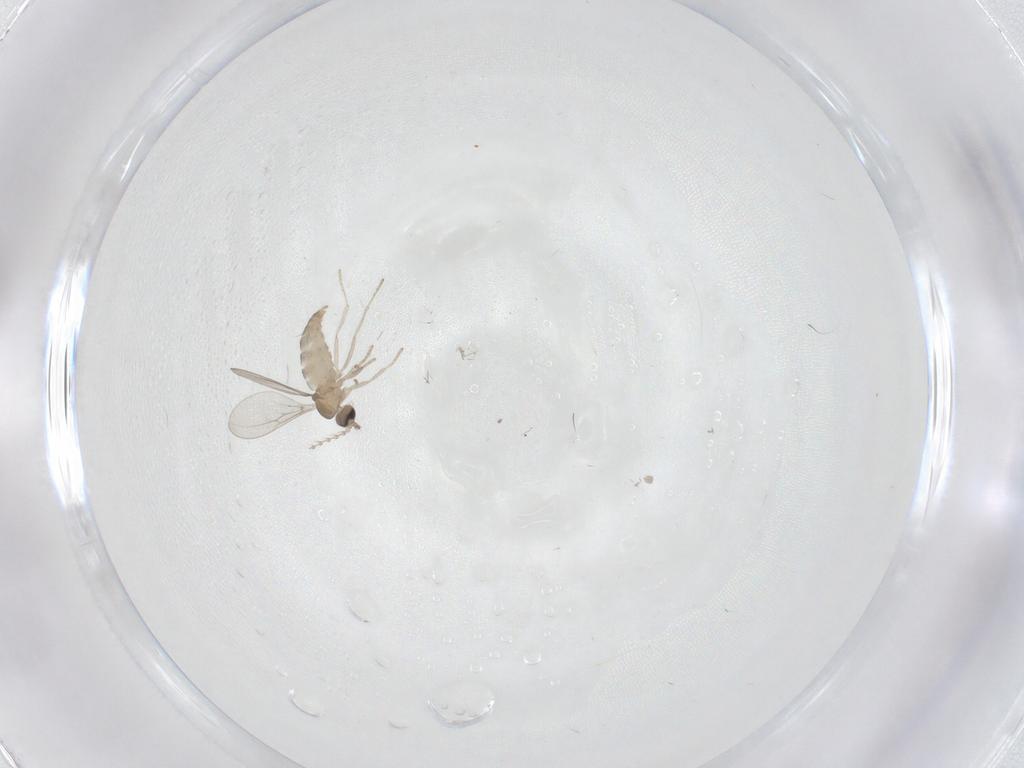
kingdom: Animalia
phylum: Arthropoda
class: Insecta
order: Diptera
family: Cecidomyiidae
